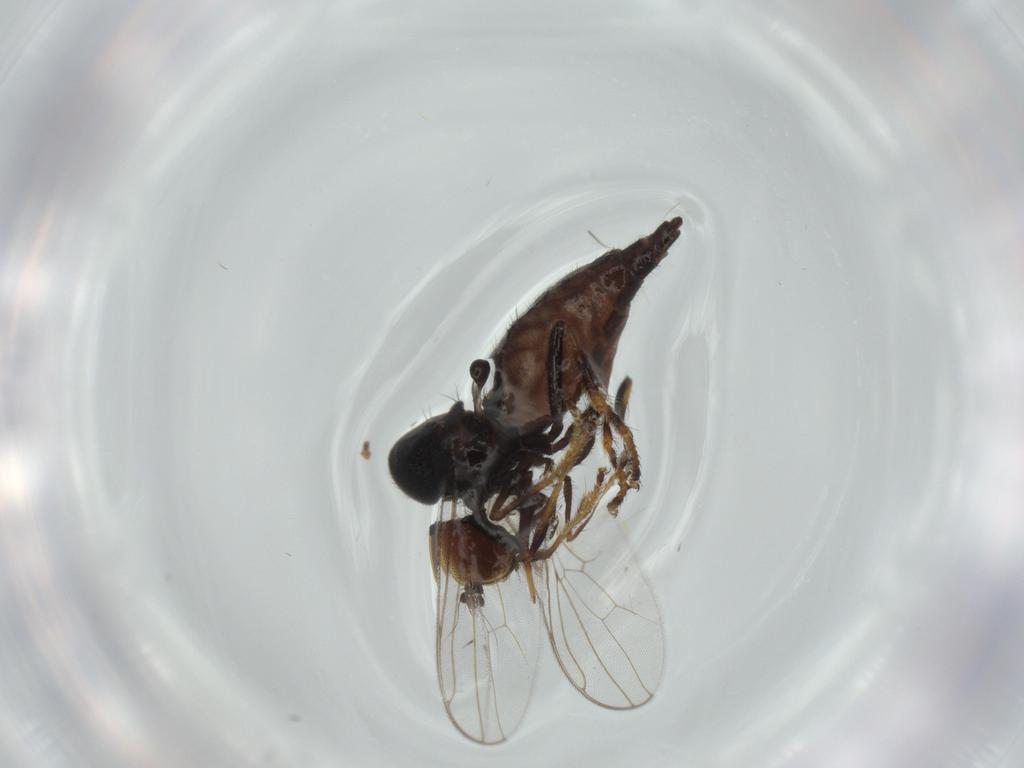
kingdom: Animalia
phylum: Arthropoda
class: Insecta
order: Diptera
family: Hybotidae
